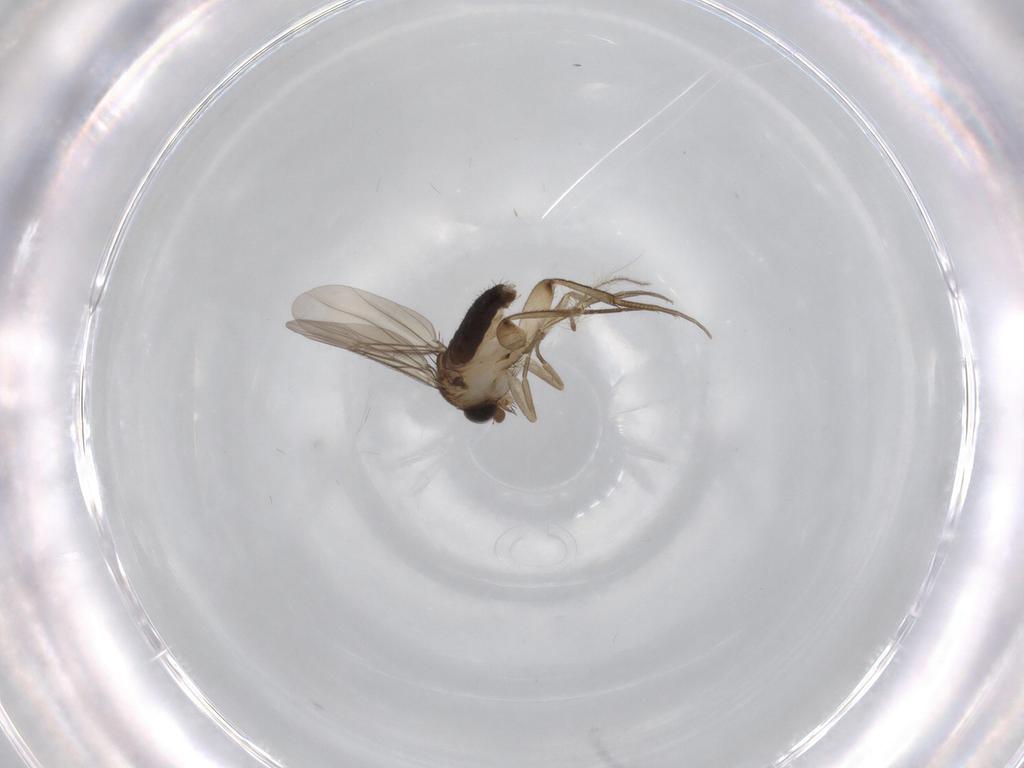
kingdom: Animalia
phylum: Arthropoda
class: Insecta
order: Diptera
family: Phoridae
